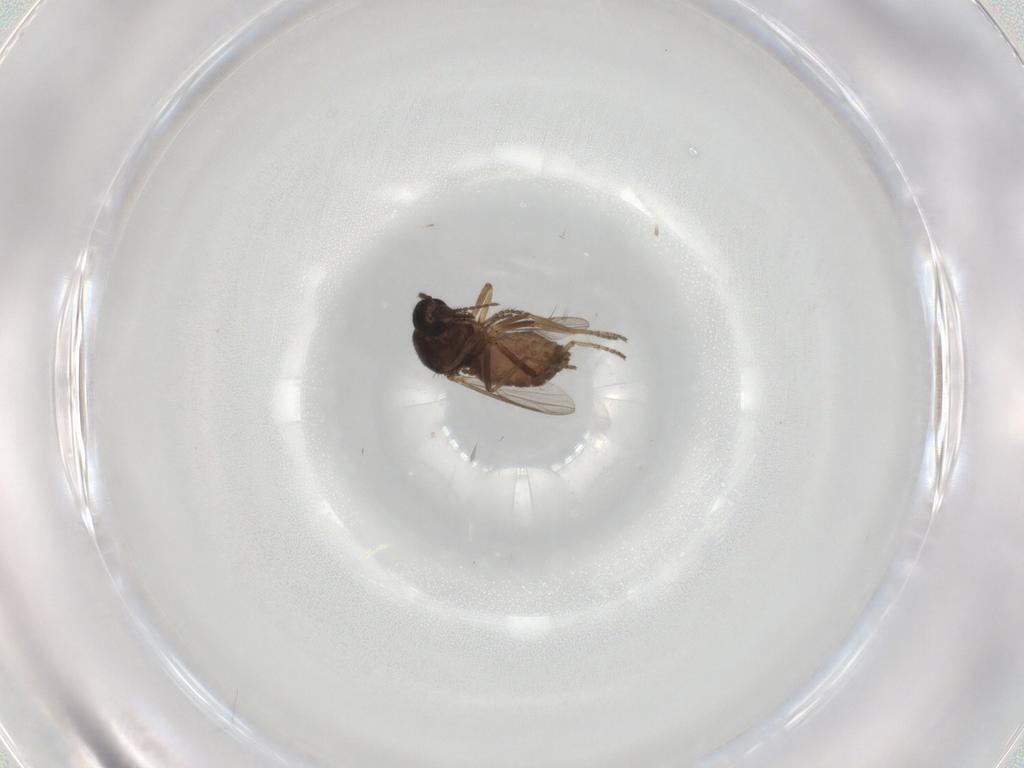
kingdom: Animalia
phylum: Arthropoda
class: Insecta
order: Diptera
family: Ceratopogonidae
